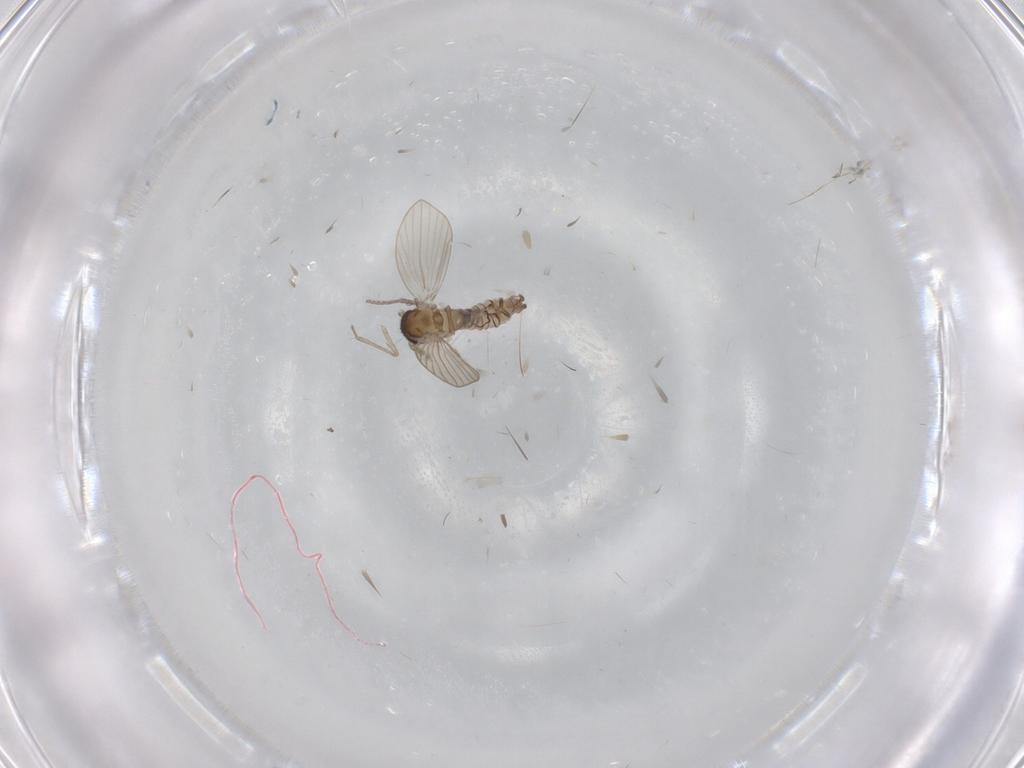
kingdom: Animalia
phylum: Arthropoda
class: Insecta
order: Diptera
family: Psychodidae
